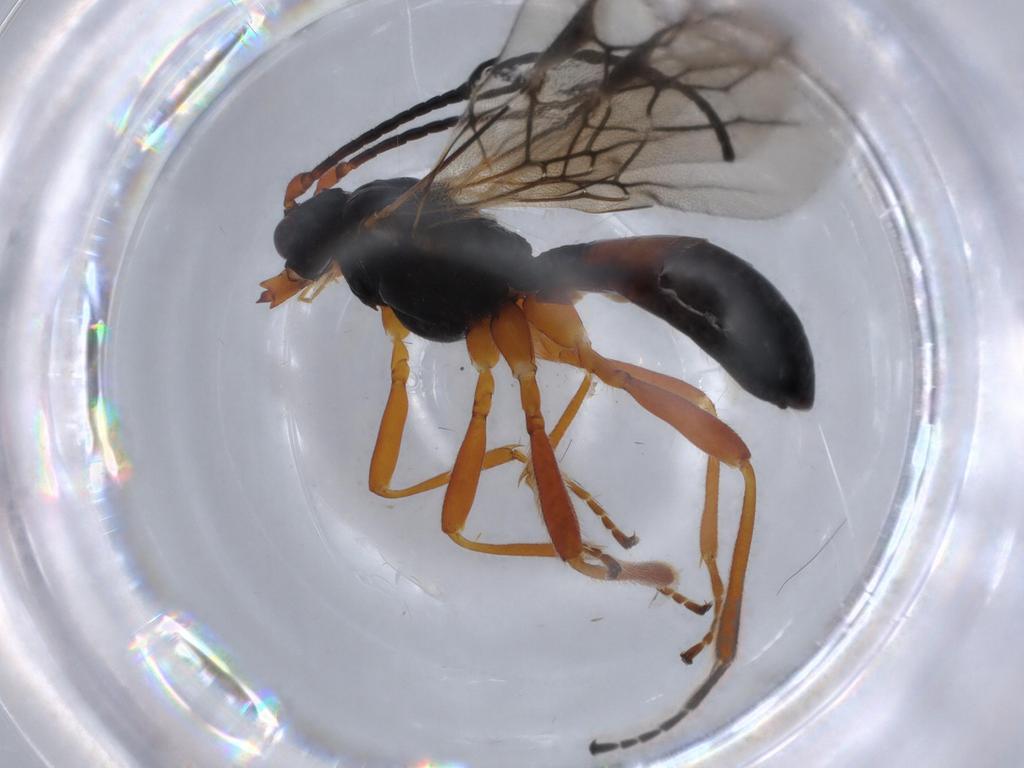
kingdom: Animalia
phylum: Arthropoda
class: Insecta
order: Hymenoptera
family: Braconidae
